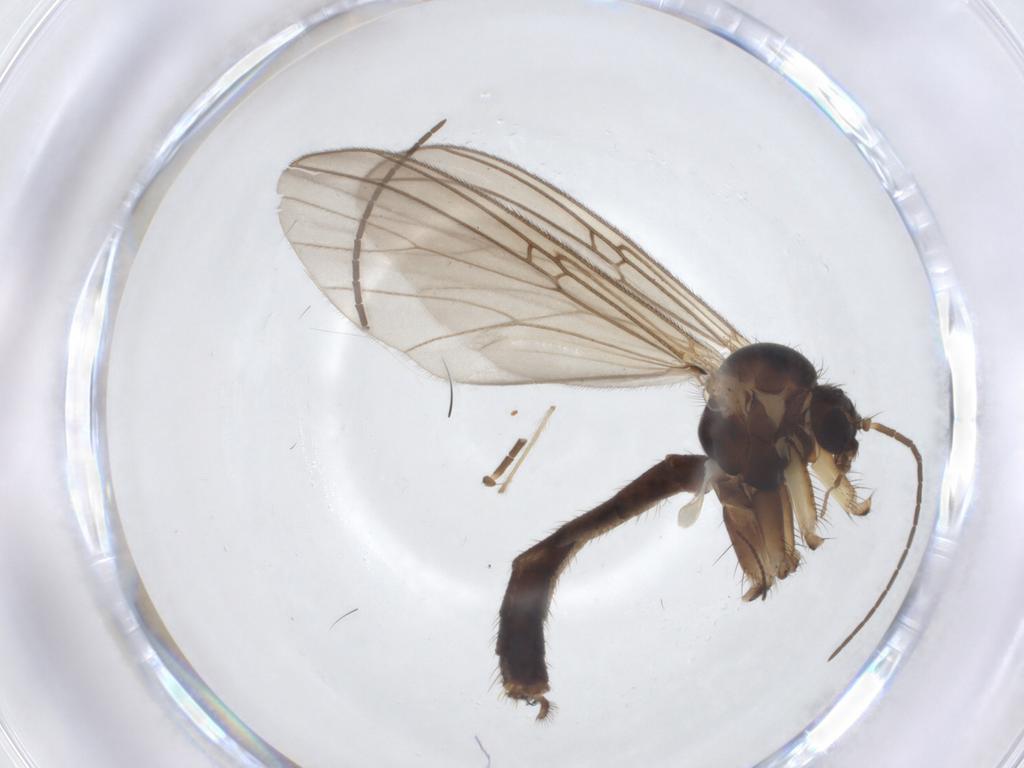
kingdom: Animalia
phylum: Arthropoda
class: Insecta
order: Diptera
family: Mycetophilidae
